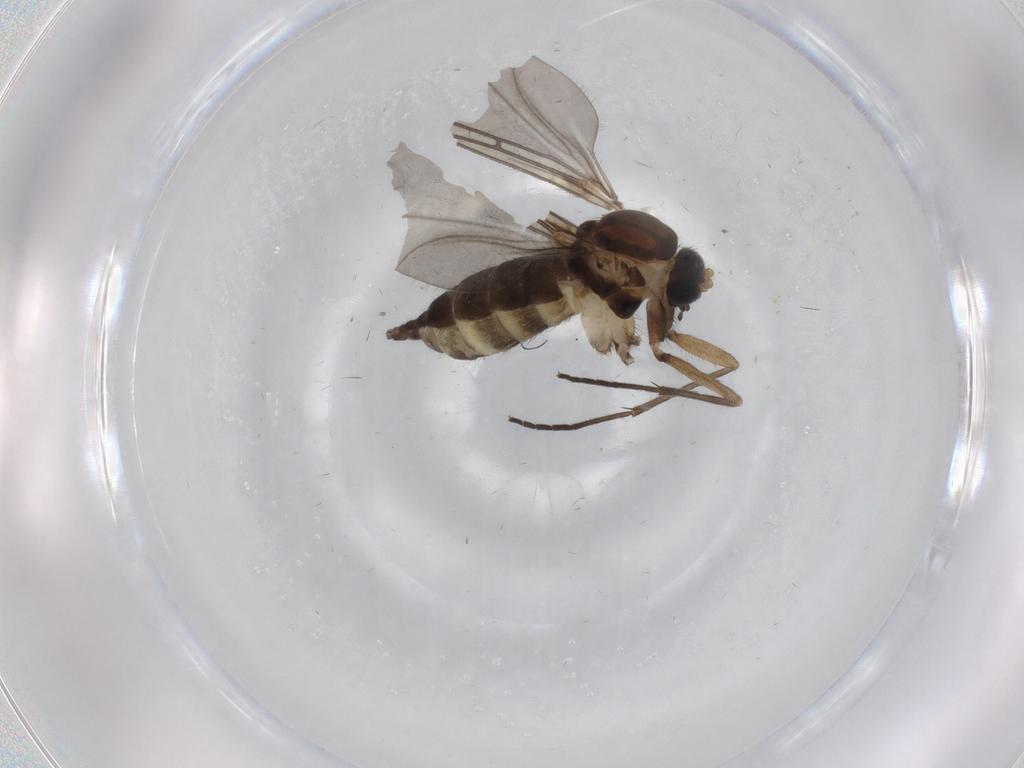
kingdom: Animalia
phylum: Arthropoda
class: Insecta
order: Diptera
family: Sciaridae
